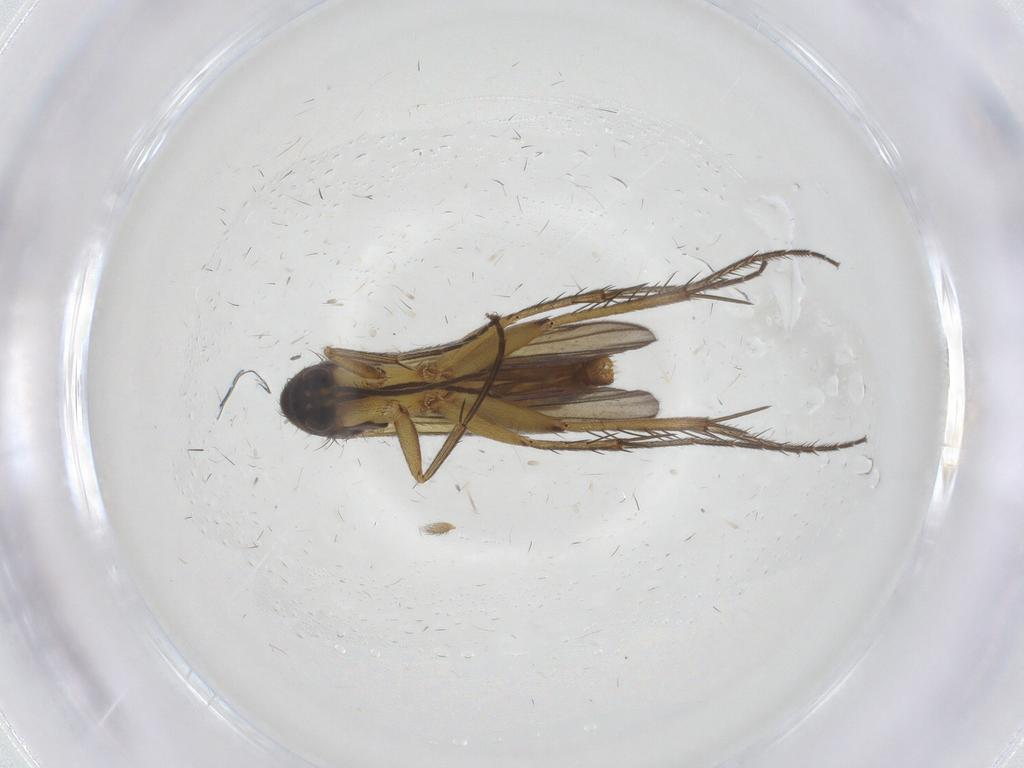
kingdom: Animalia
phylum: Arthropoda
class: Insecta
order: Diptera
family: Mycetophilidae
